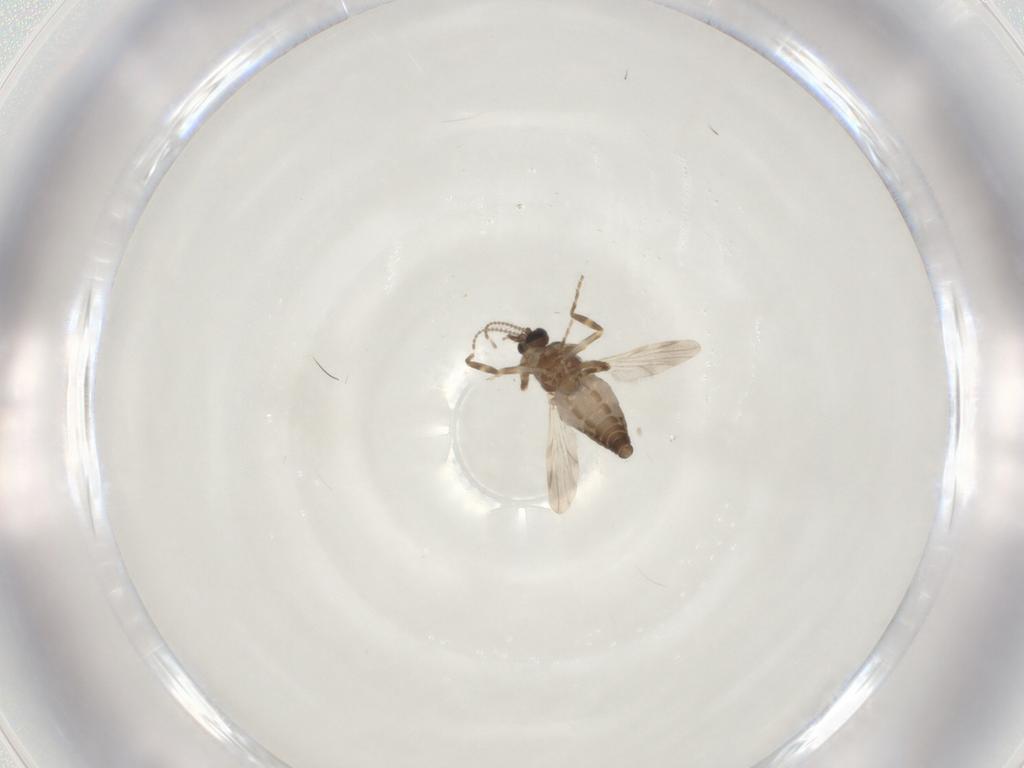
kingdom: Animalia
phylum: Arthropoda
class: Insecta
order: Diptera
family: Ceratopogonidae
